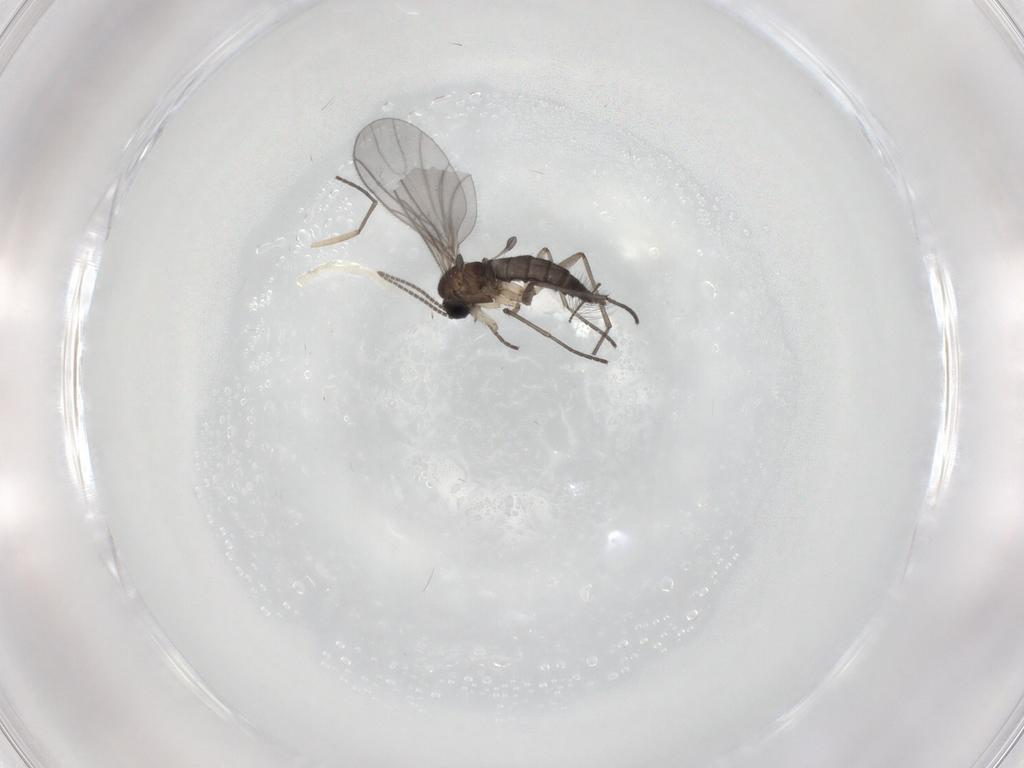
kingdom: Animalia
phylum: Arthropoda
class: Insecta
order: Diptera
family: Sciaridae
